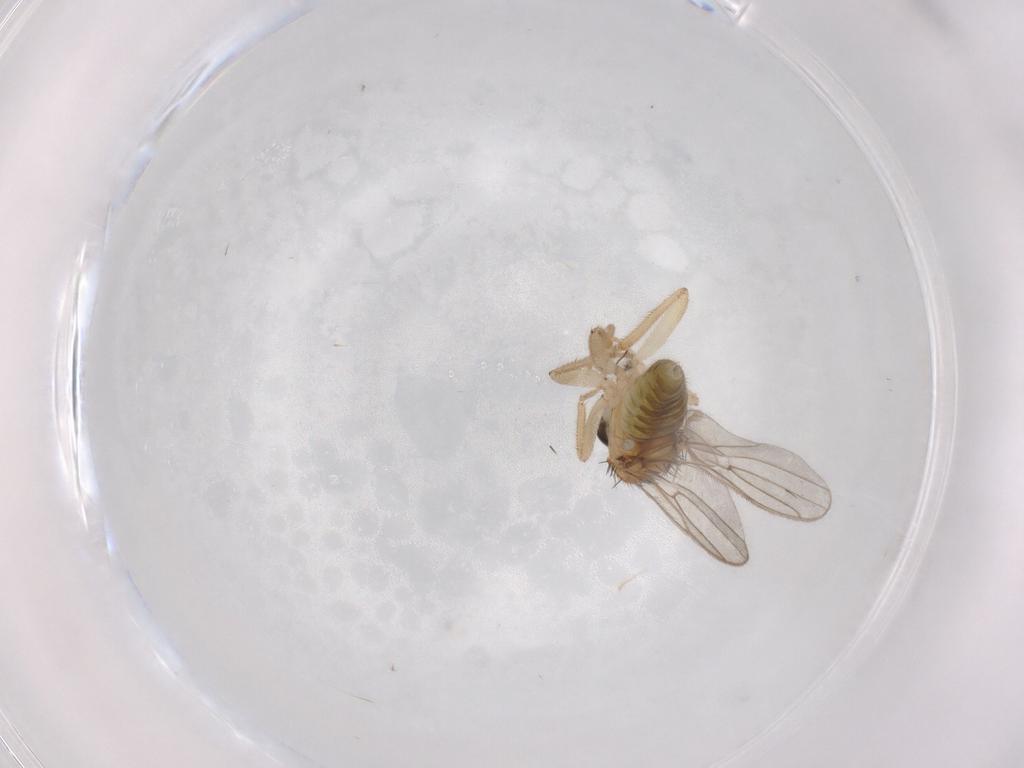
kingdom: Animalia
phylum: Arthropoda
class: Insecta
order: Diptera
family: Hybotidae
